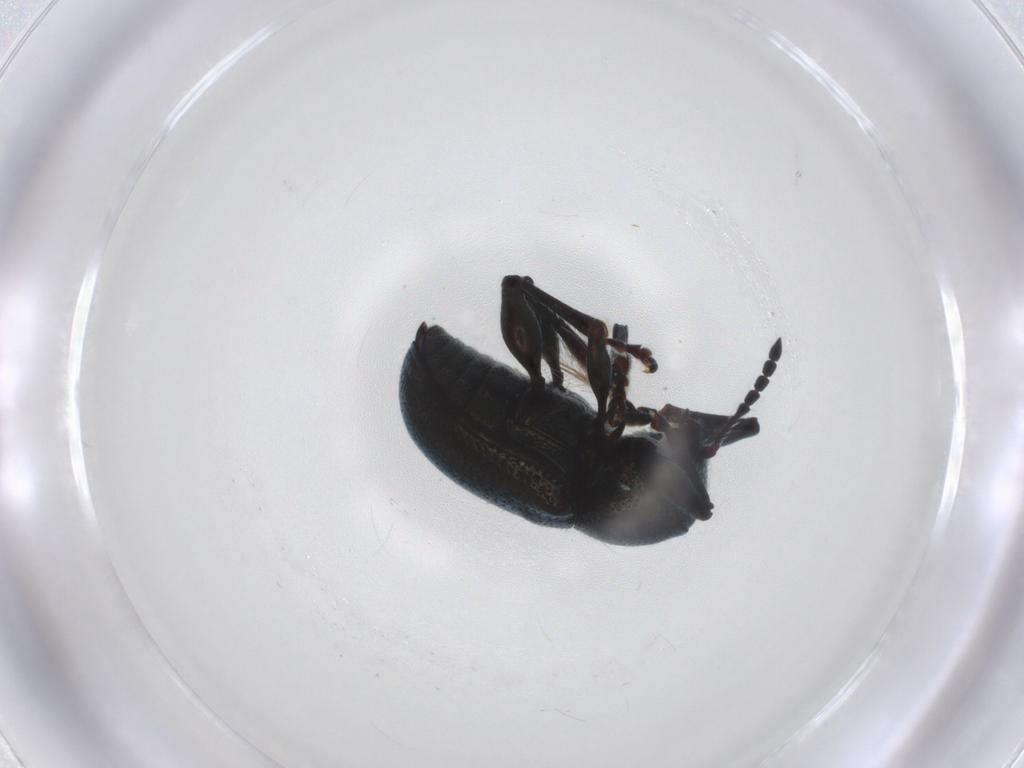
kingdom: Animalia
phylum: Arthropoda
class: Insecta
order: Coleoptera
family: Chrysomelidae
